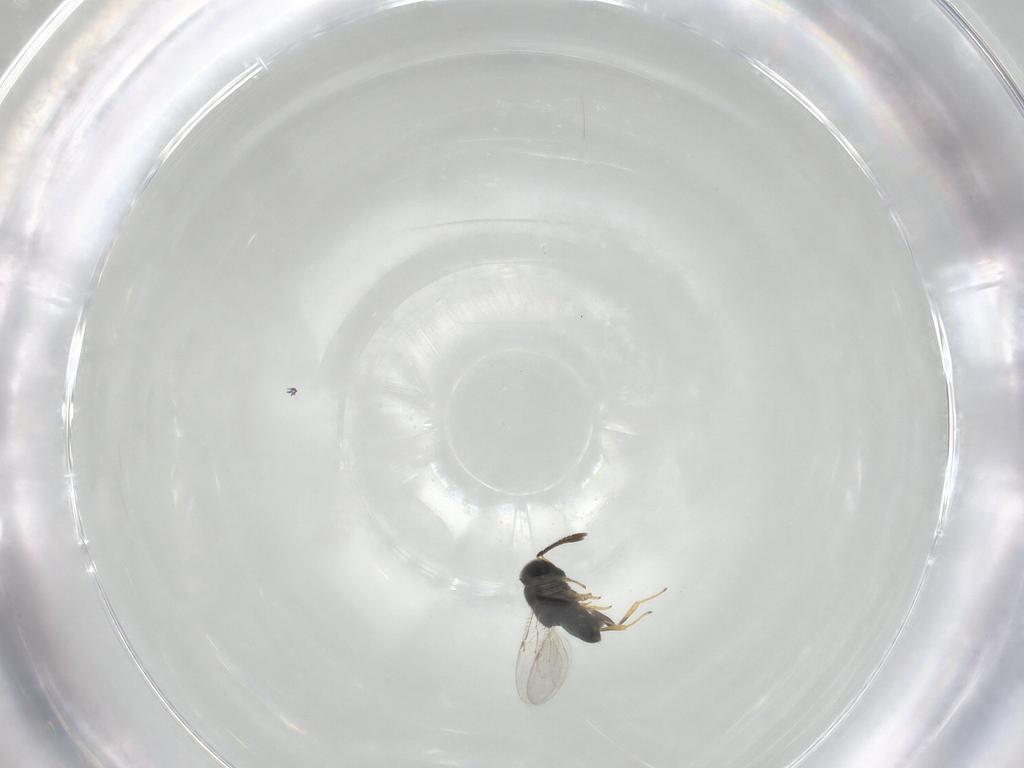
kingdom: Animalia
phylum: Arthropoda
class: Insecta
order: Hymenoptera
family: Encyrtidae
